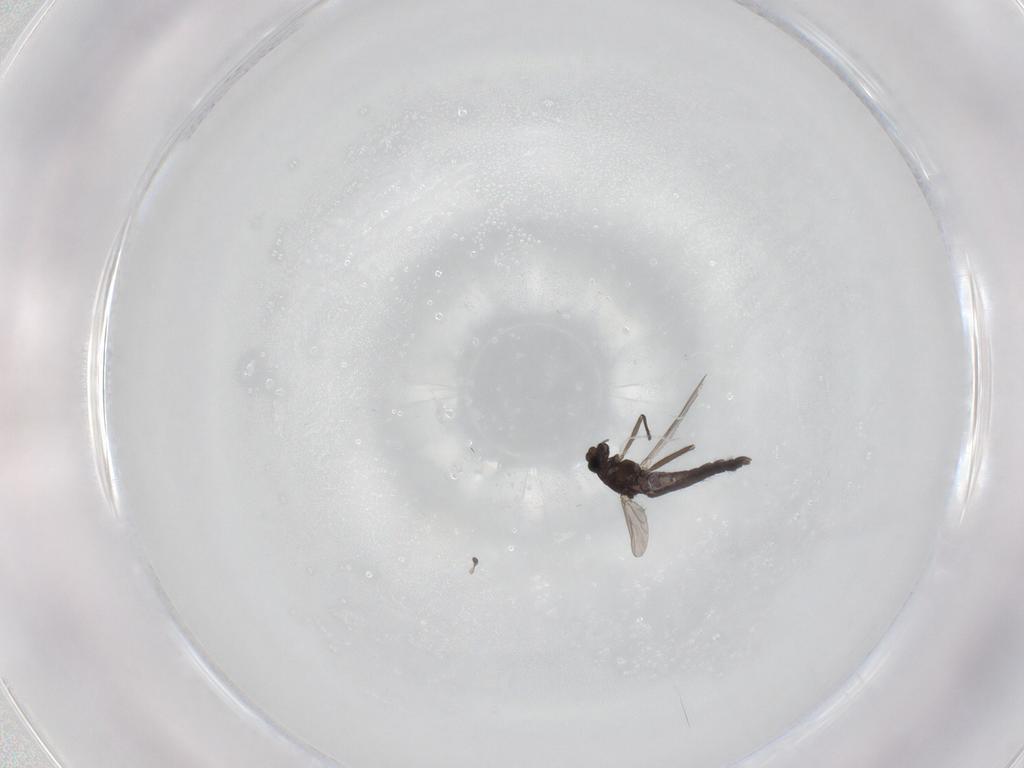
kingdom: Animalia
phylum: Arthropoda
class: Insecta
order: Diptera
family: Chironomidae
